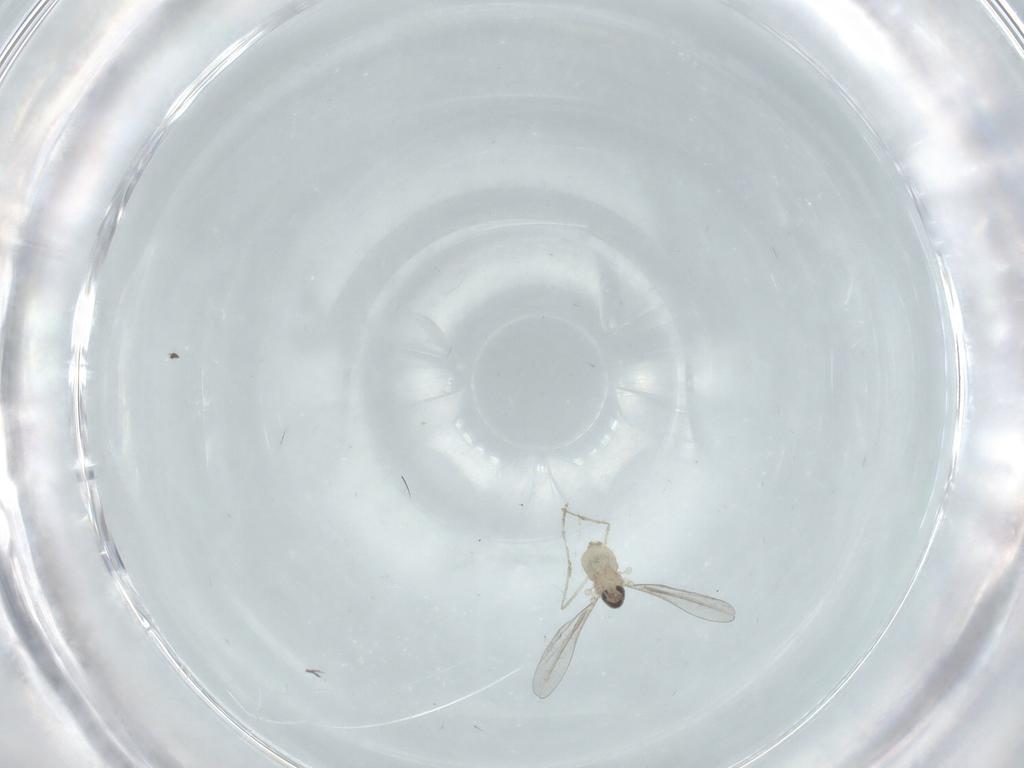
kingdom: Animalia
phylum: Arthropoda
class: Insecta
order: Diptera
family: Cecidomyiidae
